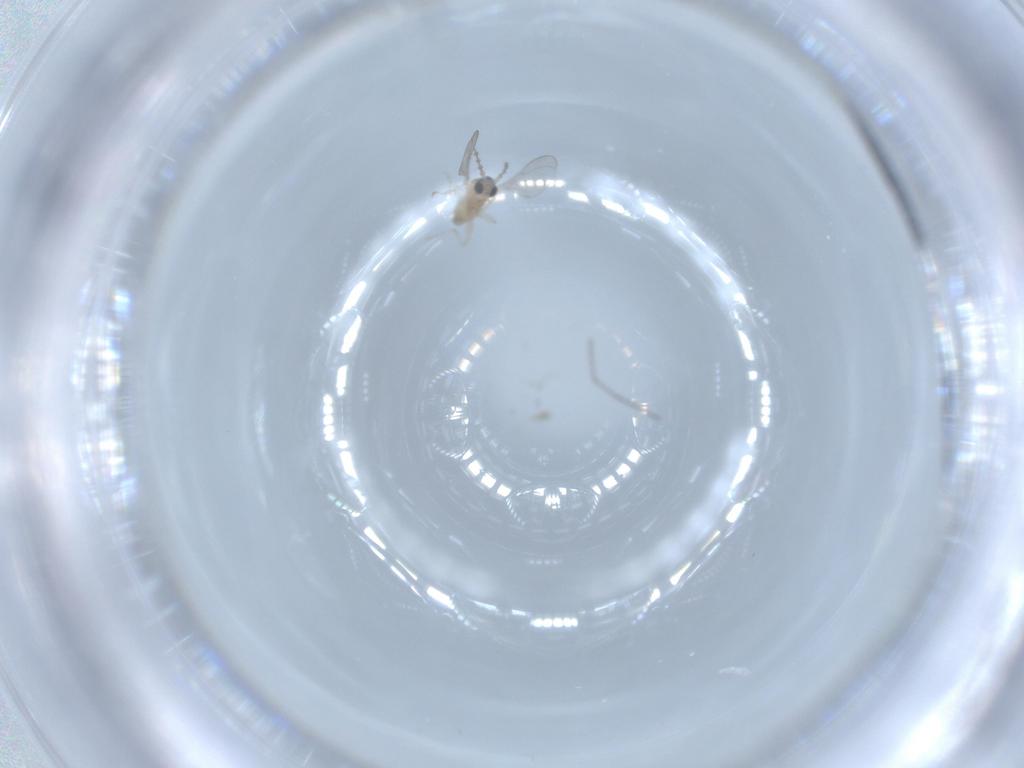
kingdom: Animalia
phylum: Arthropoda
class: Insecta
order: Diptera
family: Cecidomyiidae
